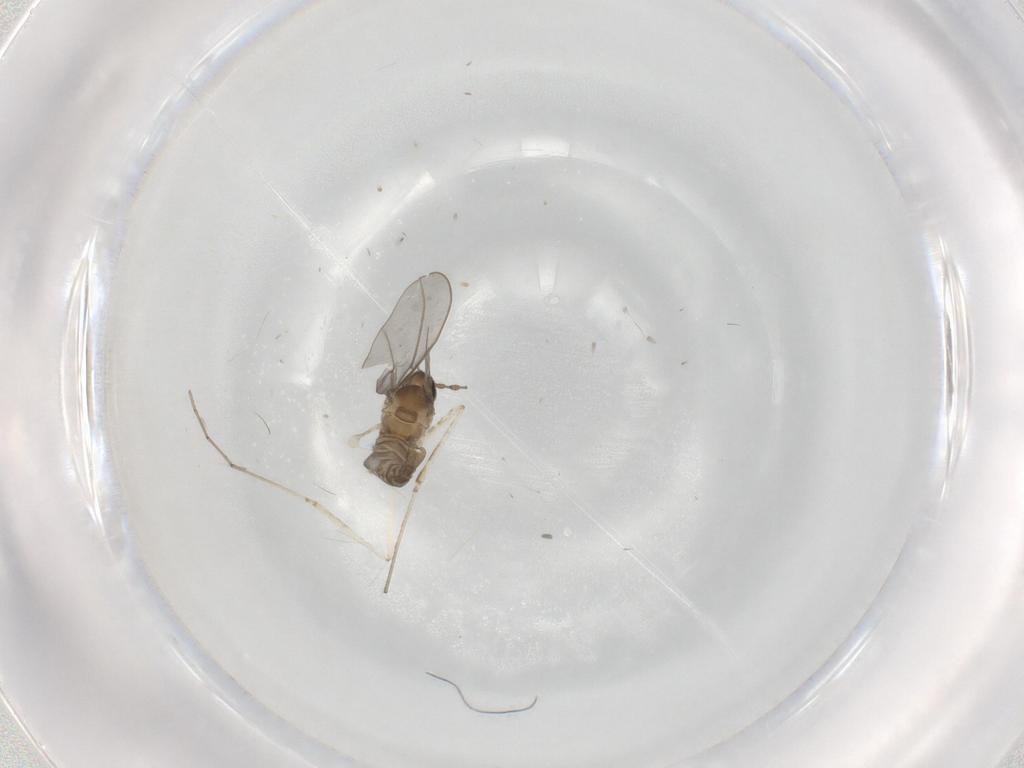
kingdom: Animalia
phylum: Arthropoda
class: Insecta
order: Diptera
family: Cecidomyiidae
